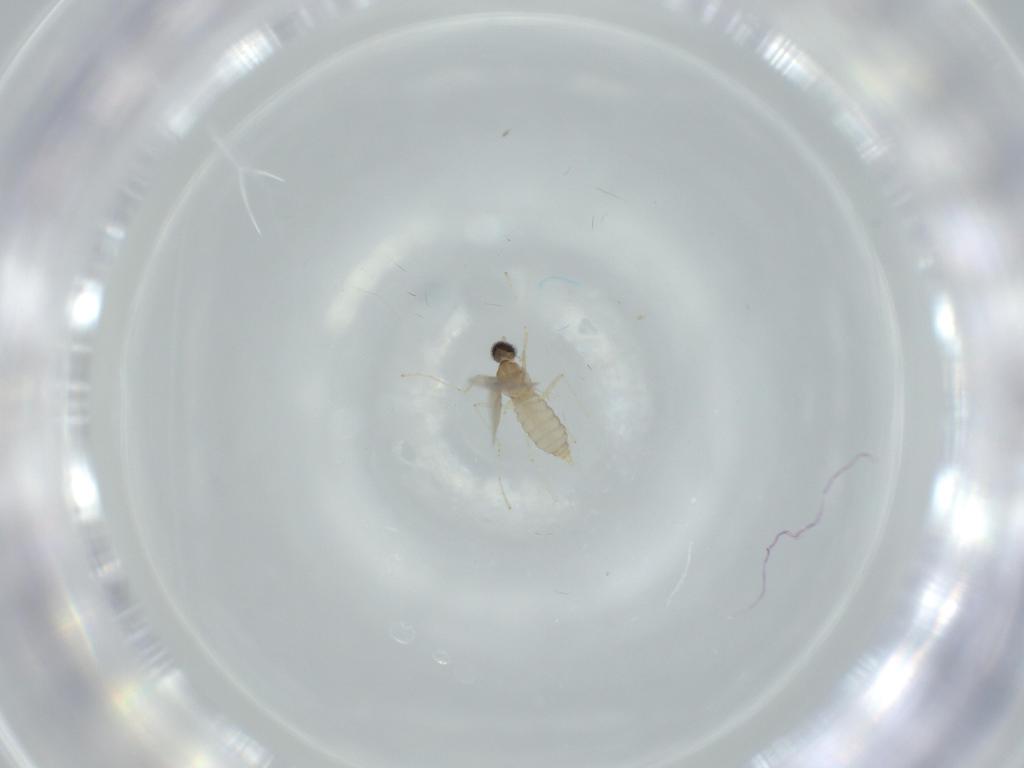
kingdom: Animalia
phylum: Arthropoda
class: Insecta
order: Diptera
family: Cecidomyiidae
